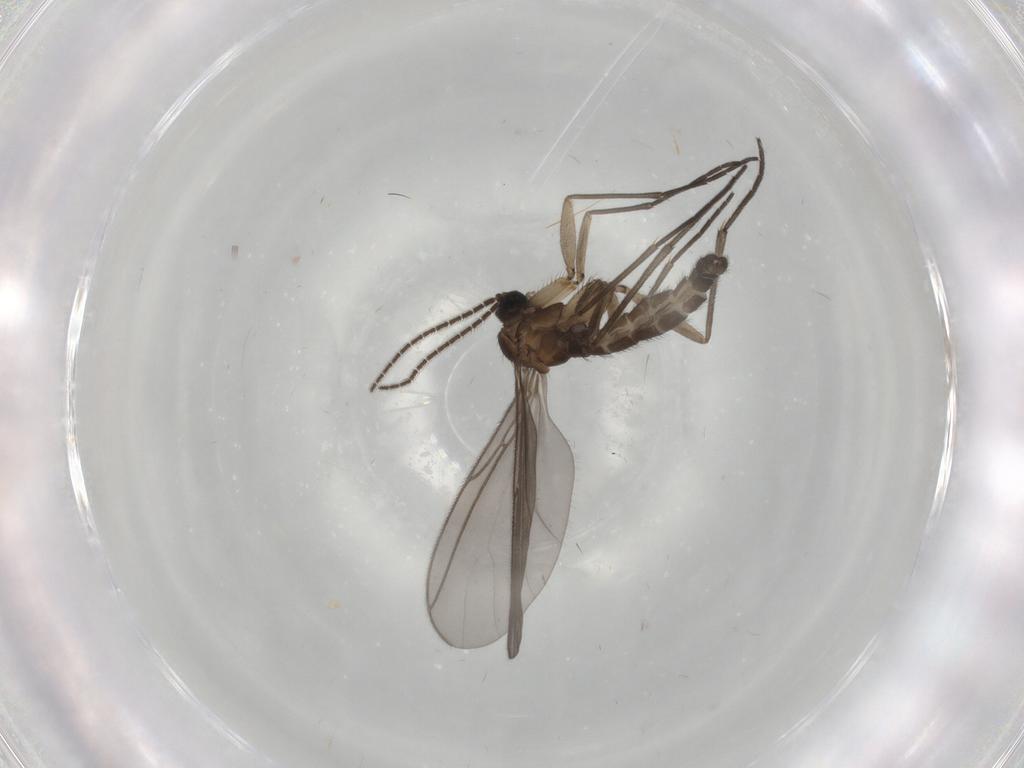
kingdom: Animalia
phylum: Arthropoda
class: Insecta
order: Diptera
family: Sciaridae
